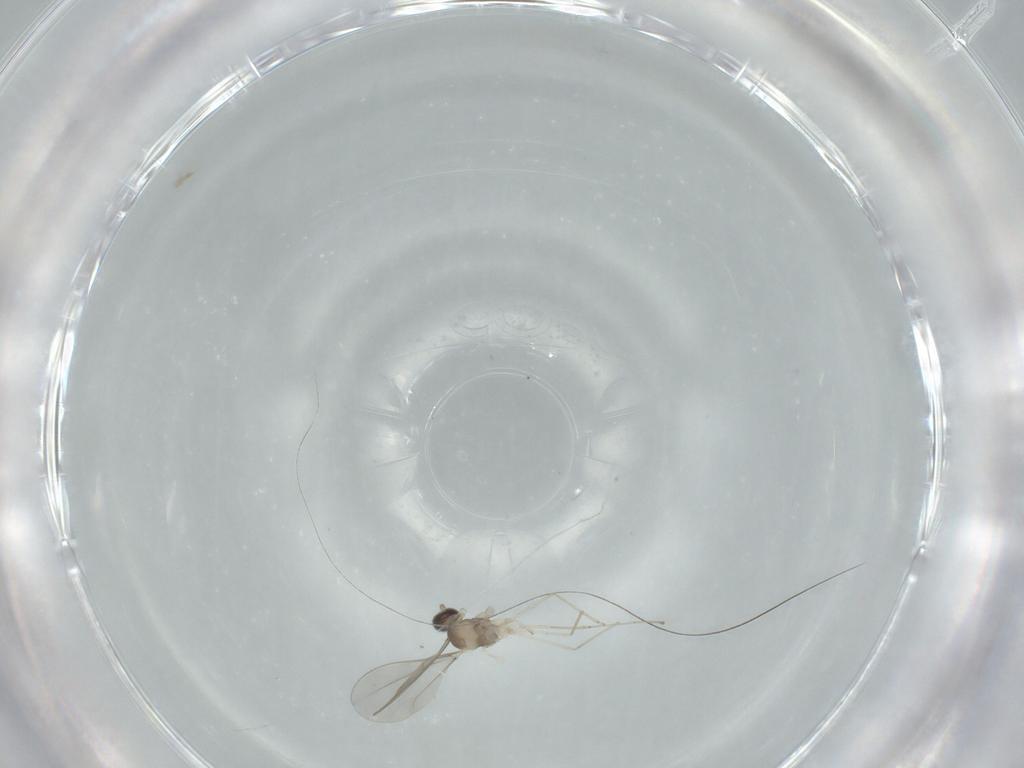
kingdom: Animalia
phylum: Arthropoda
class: Insecta
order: Diptera
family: Cecidomyiidae
